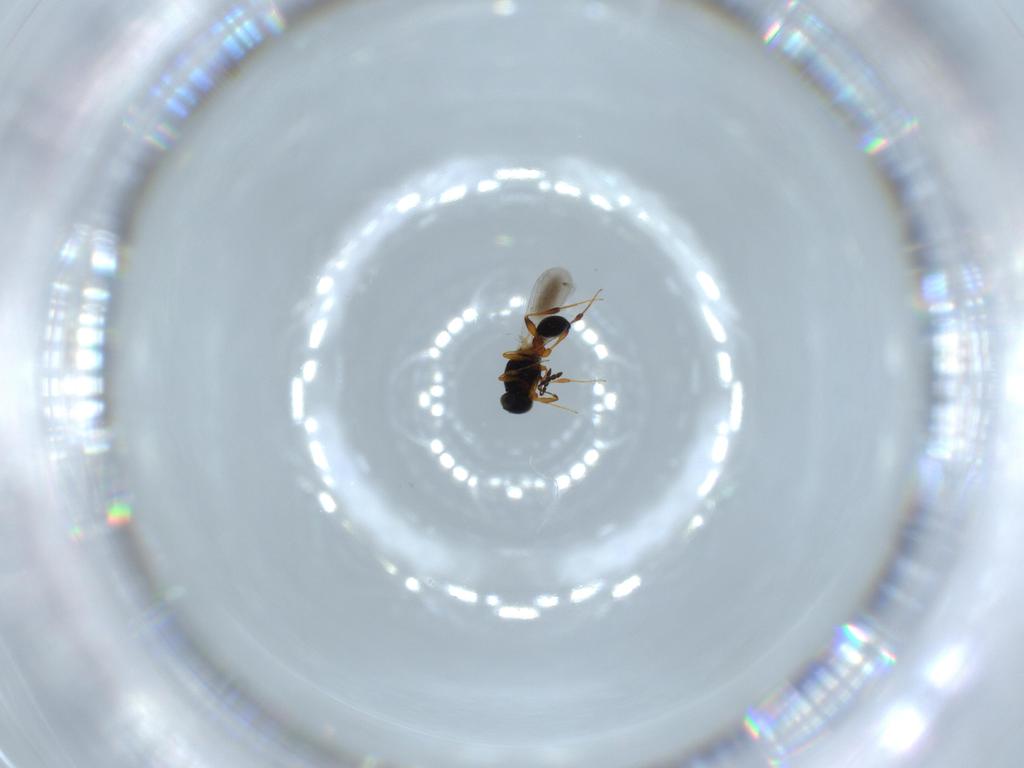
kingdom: Animalia
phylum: Arthropoda
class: Insecta
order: Hymenoptera
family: Platygastridae
